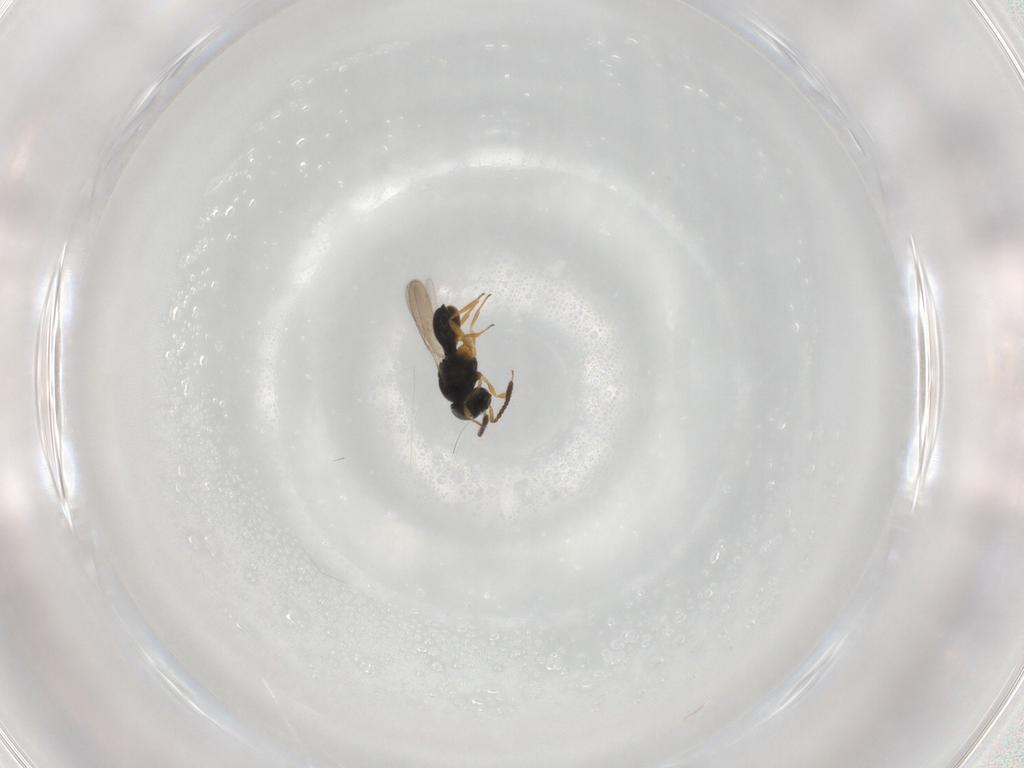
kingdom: Animalia
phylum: Arthropoda
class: Insecta
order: Hymenoptera
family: Scelionidae
